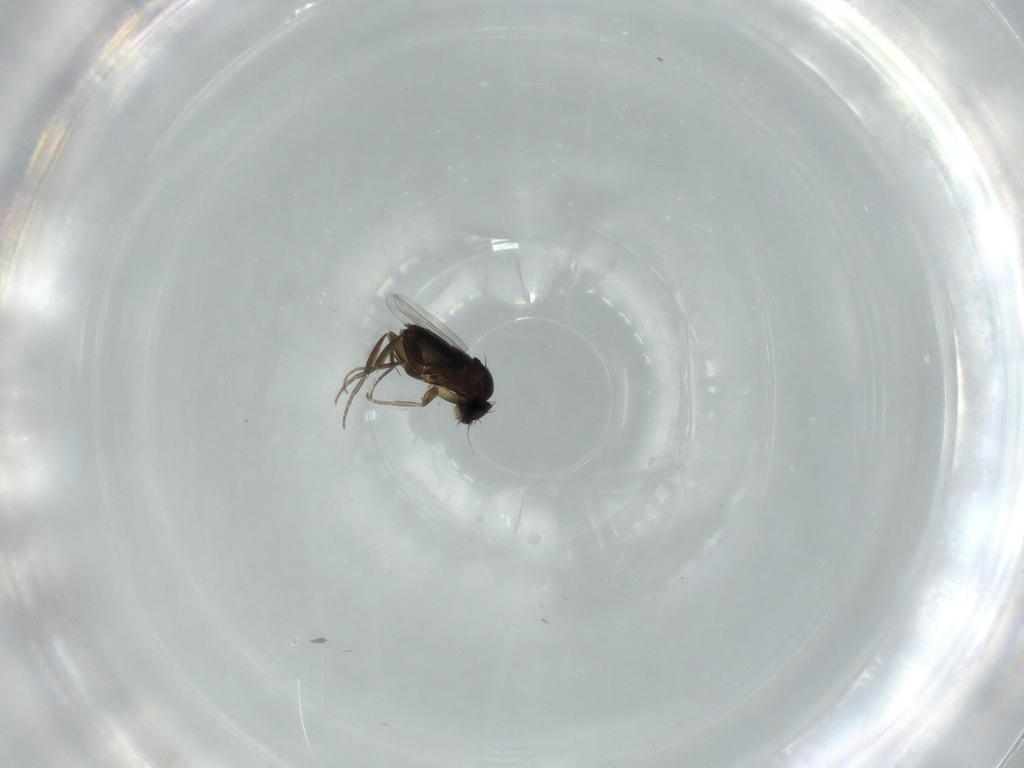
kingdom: Animalia
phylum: Arthropoda
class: Insecta
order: Diptera
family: Phoridae
